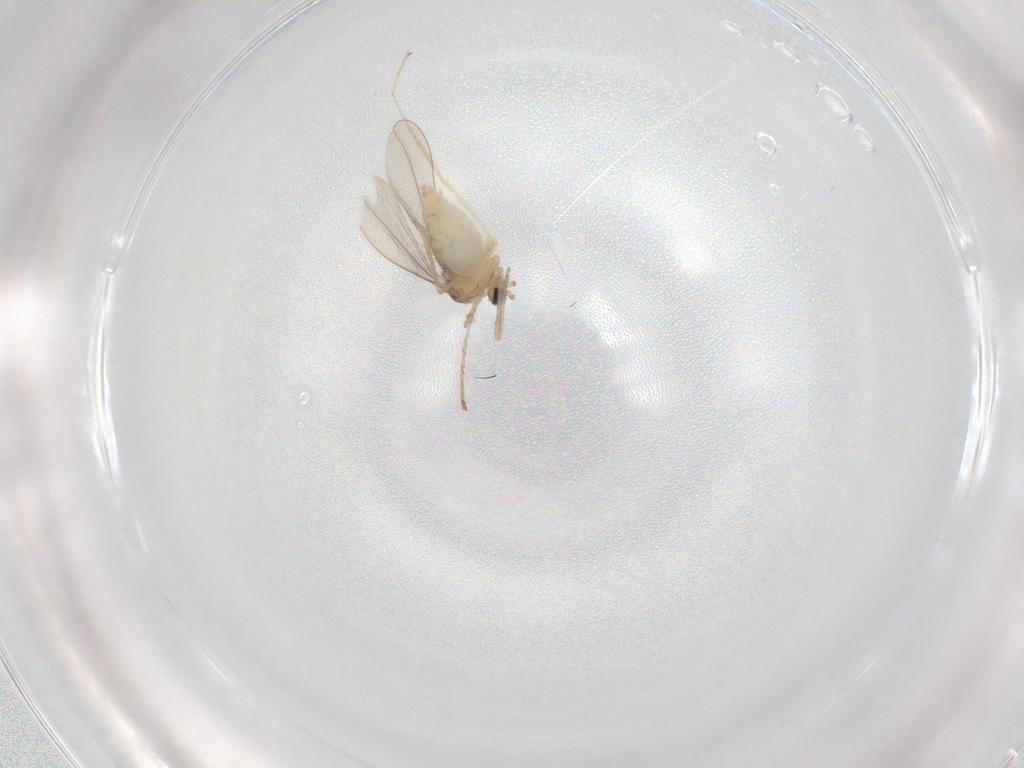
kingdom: Animalia
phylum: Arthropoda
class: Insecta
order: Diptera
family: Cecidomyiidae
